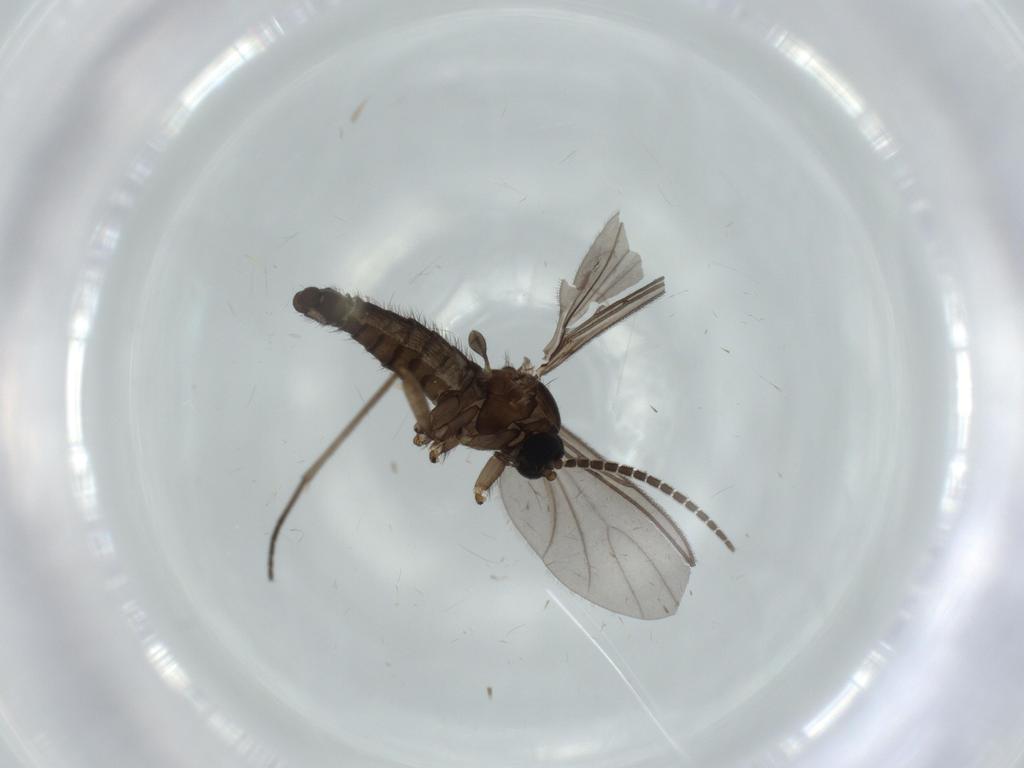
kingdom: Animalia
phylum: Arthropoda
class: Insecta
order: Diptera
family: Sciaridae
